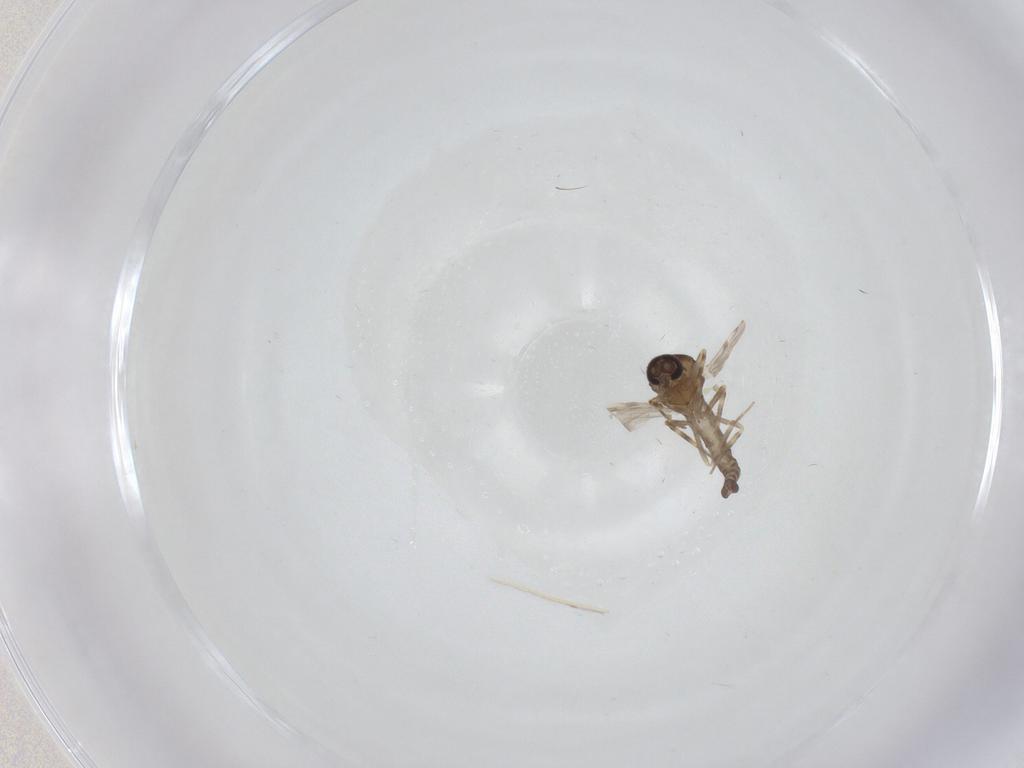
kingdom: Animalia
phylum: Arthropoda
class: Insecta
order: Diptera
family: Ceratopogonidae
